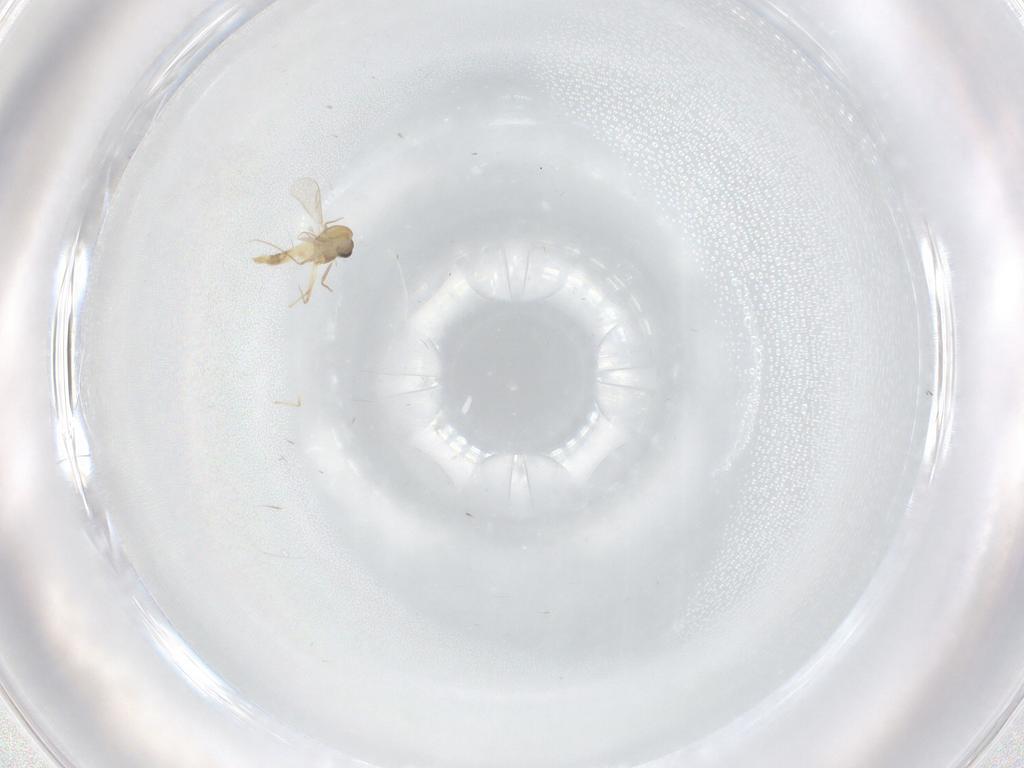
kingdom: Animalia
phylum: Arthropoda
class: Insecta
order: Diptera
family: Chironomidae
